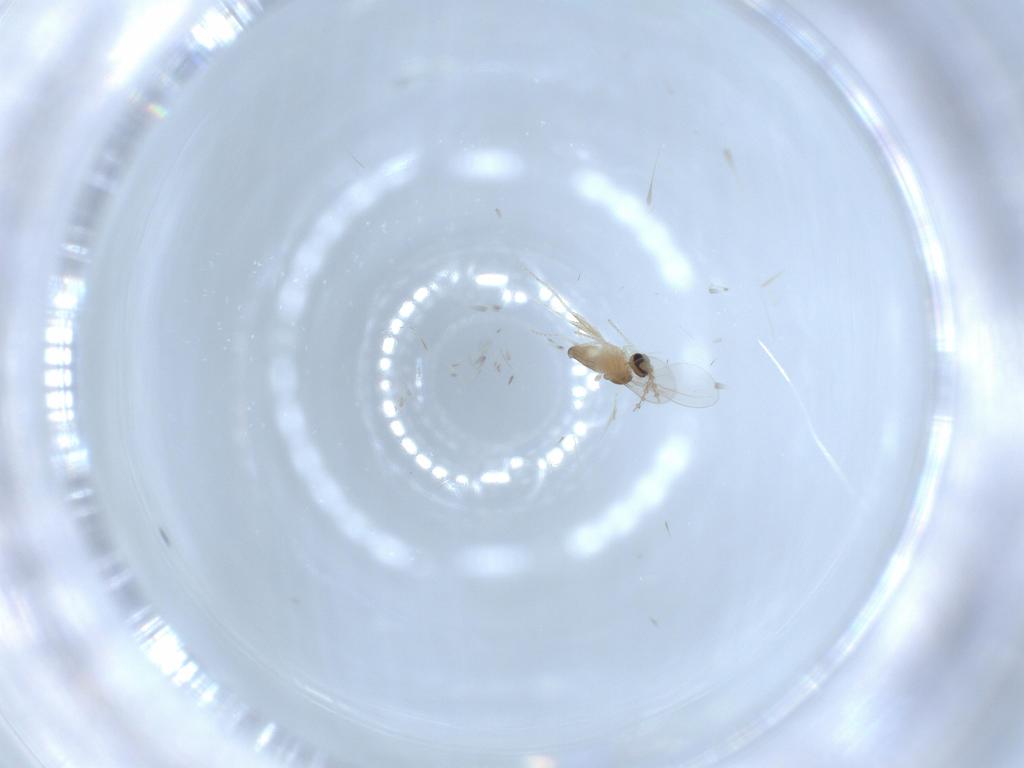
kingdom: Animalia
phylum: Arthropoda
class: Insecta
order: Diptera
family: Cecidomyiidae
